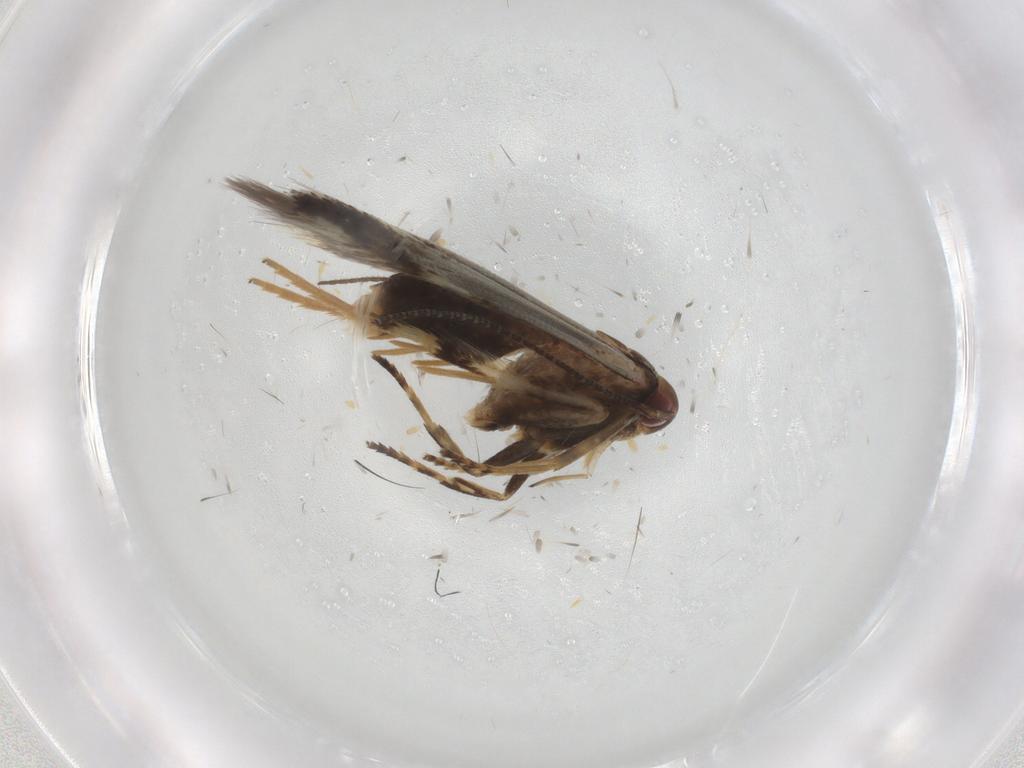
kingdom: Animalia
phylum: Arthropoda
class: Insecta
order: Lepidoptera
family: Cosmopterigidae
